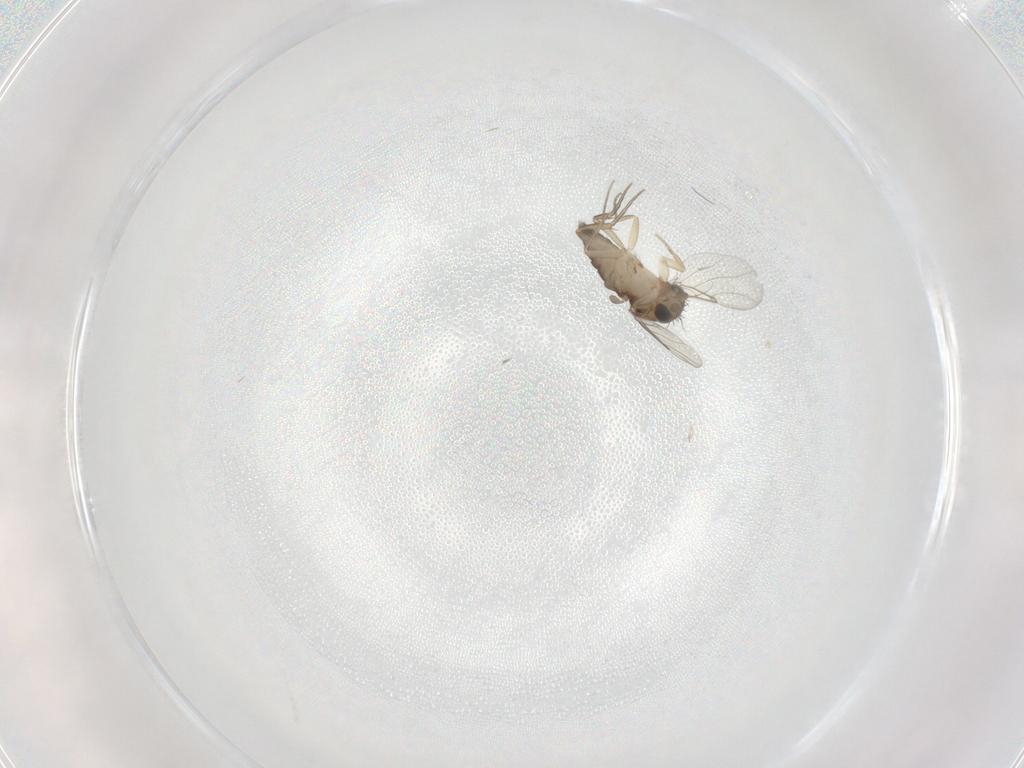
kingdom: Animalia
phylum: Arthropoda
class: Insecta
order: Diptera
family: Drosophilidae
